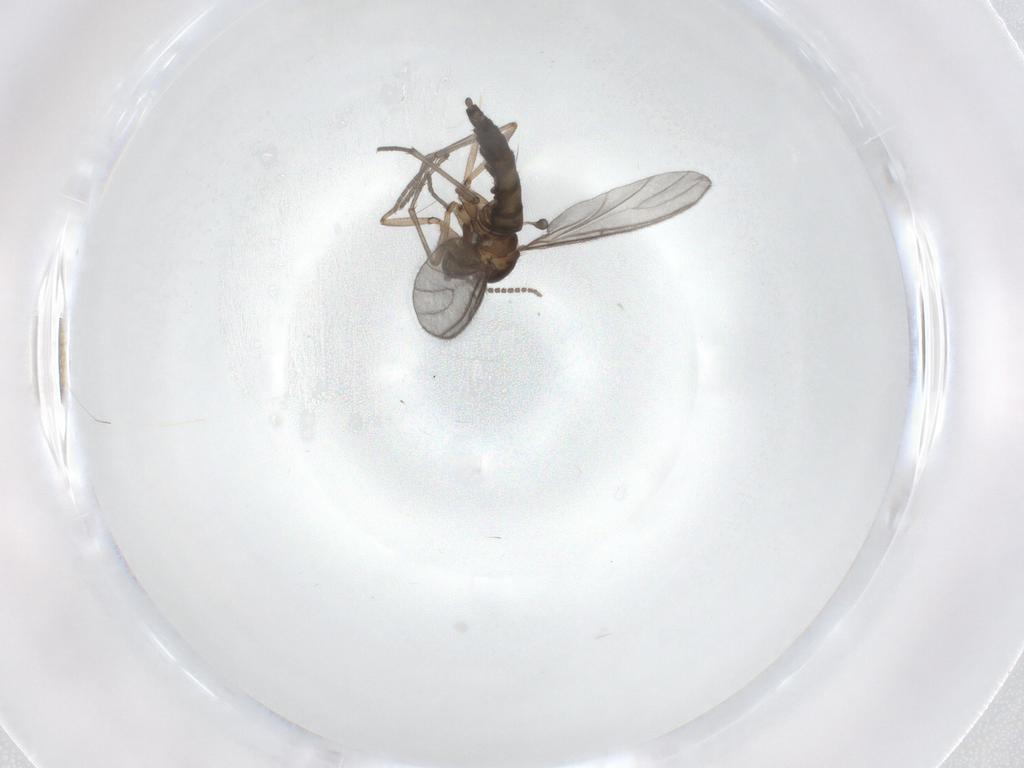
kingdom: Animalia
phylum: Arthropoda
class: Insecta
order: Diptera
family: Sciaridae
